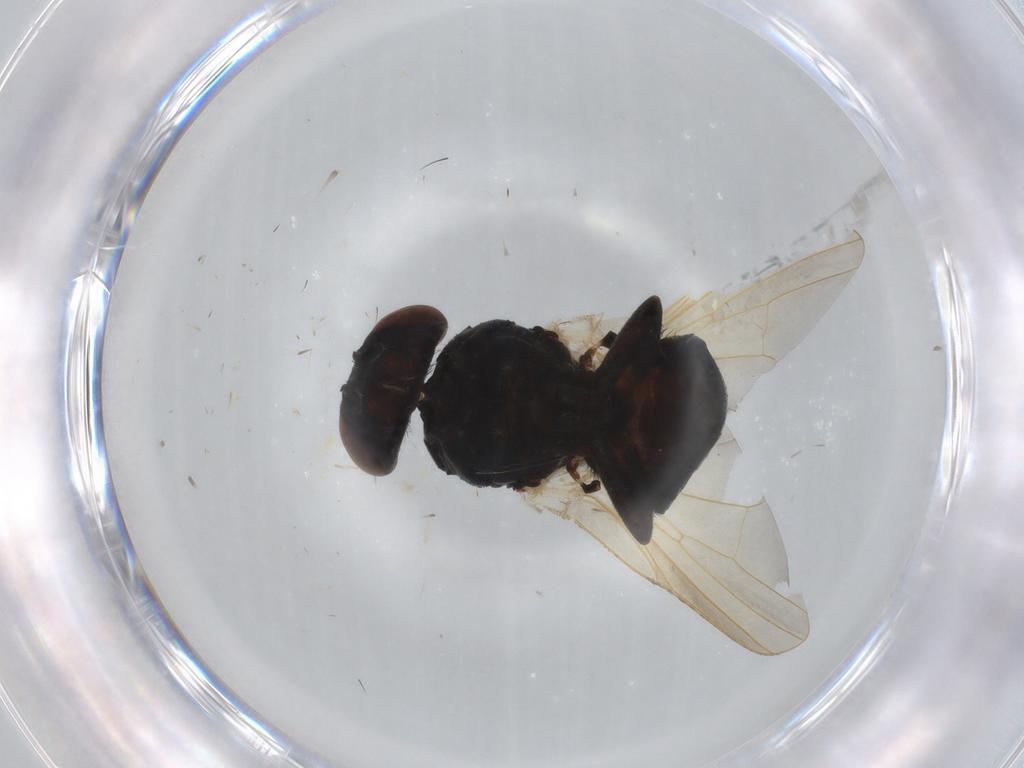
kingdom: Animalia
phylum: Arthropoda
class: Insecta
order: Diptera
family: Lonchaeidae
